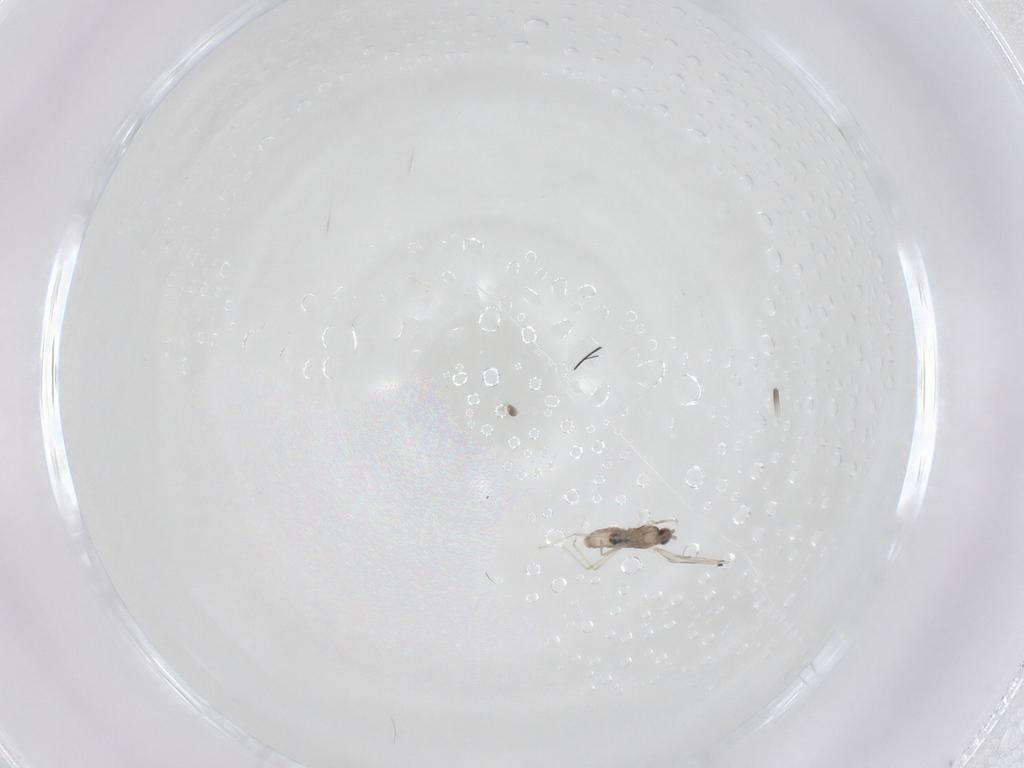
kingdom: Animalia
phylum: Arthropoda
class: Insecta
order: Diptera
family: Cecidomyiidae
